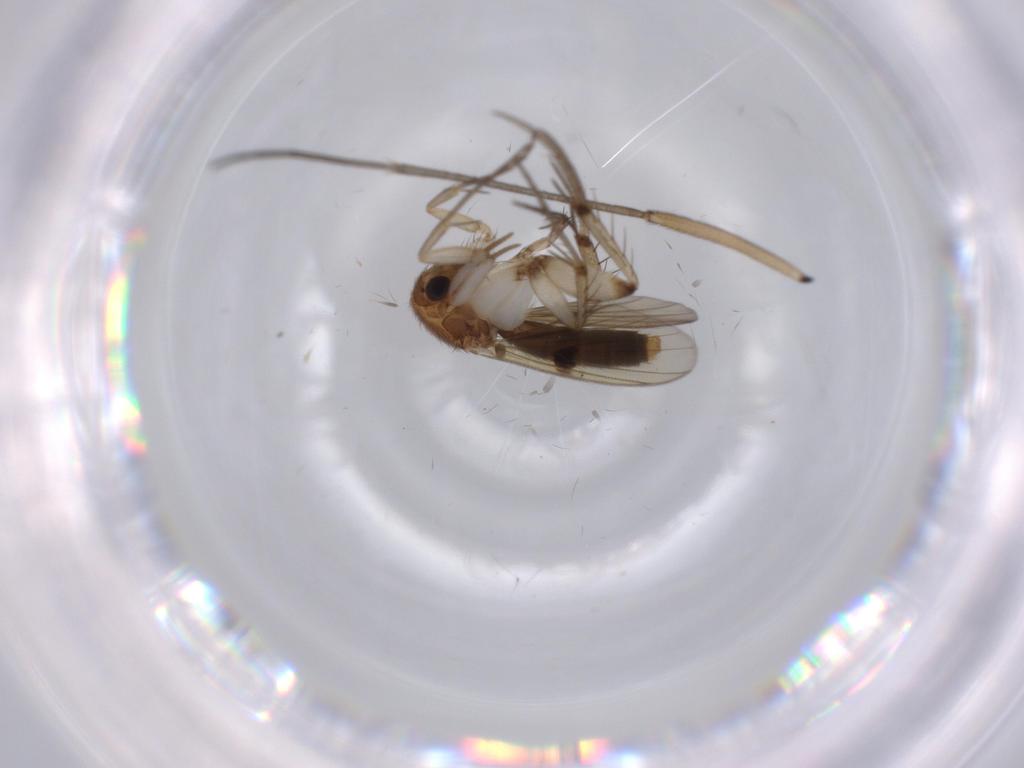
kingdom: Animalia
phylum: Arthropoda
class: Insecta
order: Diptera
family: Mycetophilidae
